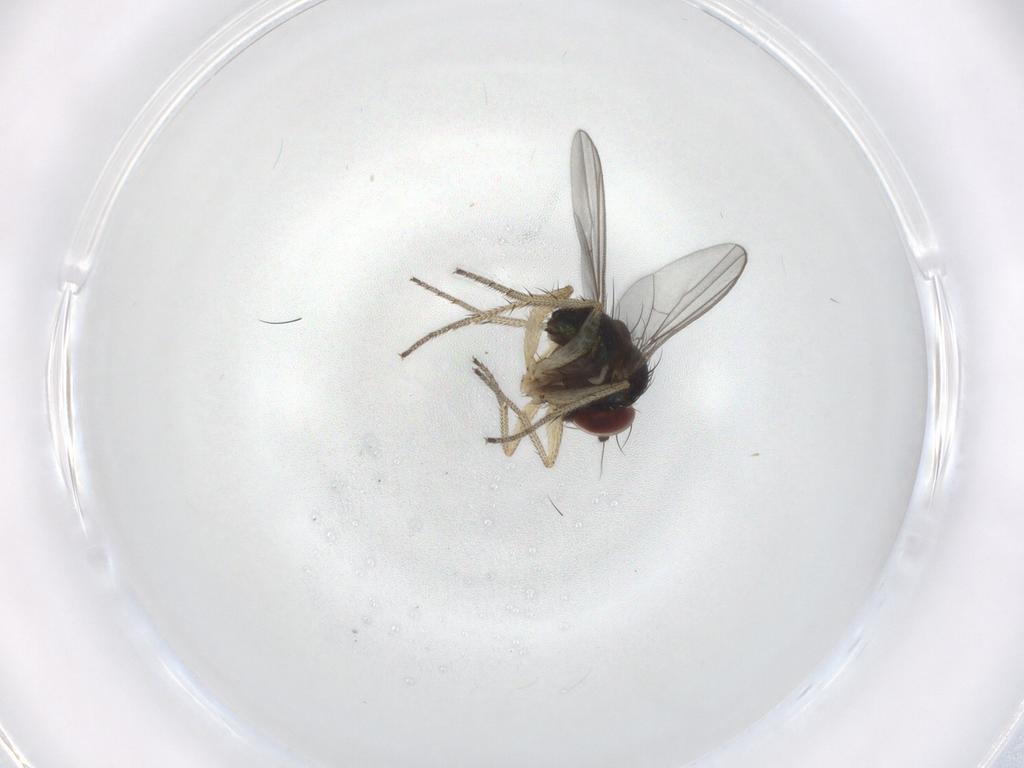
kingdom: Animalia
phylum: Arthropoda
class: Insecta
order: Diptera
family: Dolichopodidae
